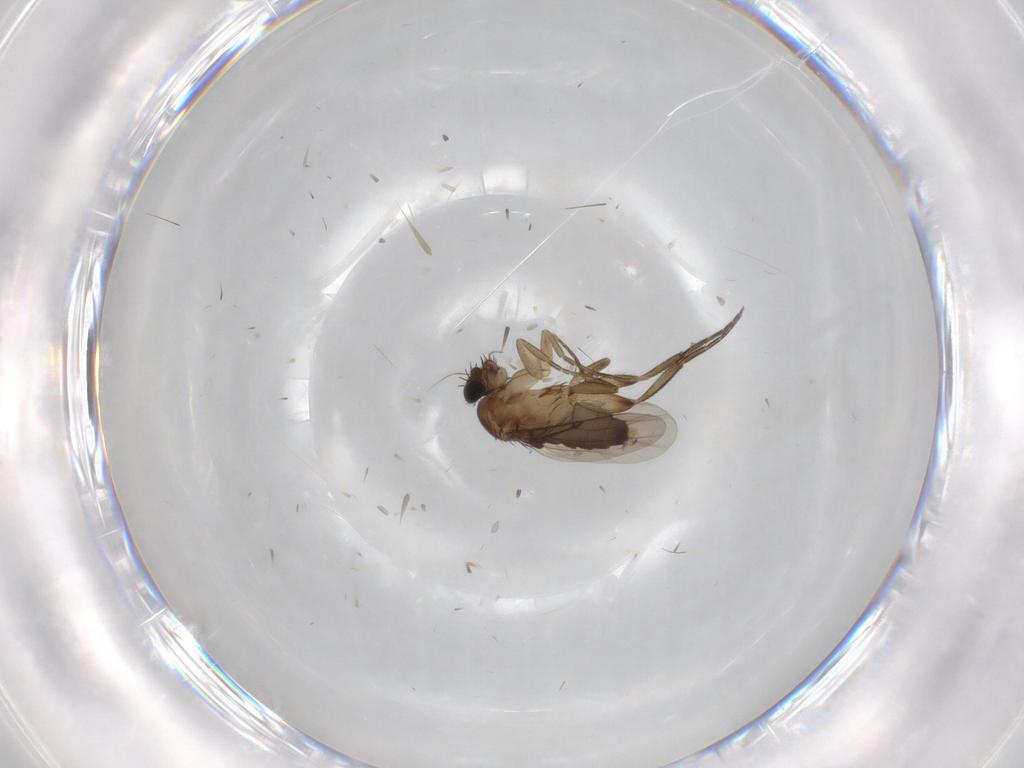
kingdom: Animalia
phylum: Arthropoda
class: Insecta
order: Diptera
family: Phoridae
